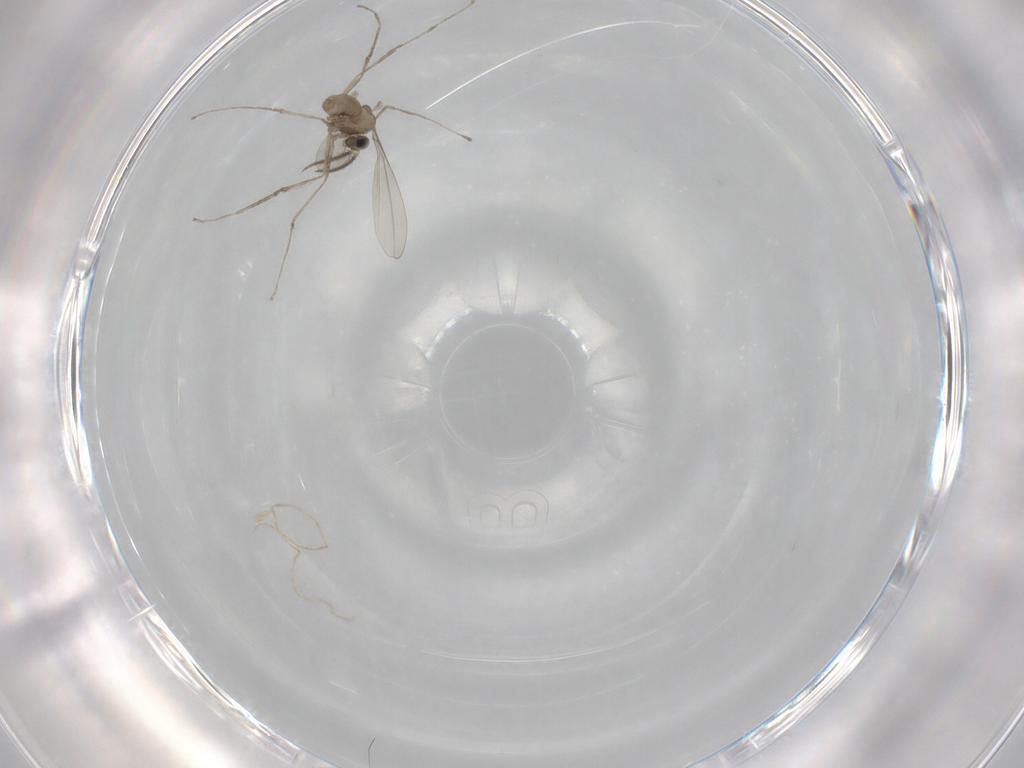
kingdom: Animalia
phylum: Arthropoda
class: Insecta
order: Diptera
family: Cecidomyiidae
